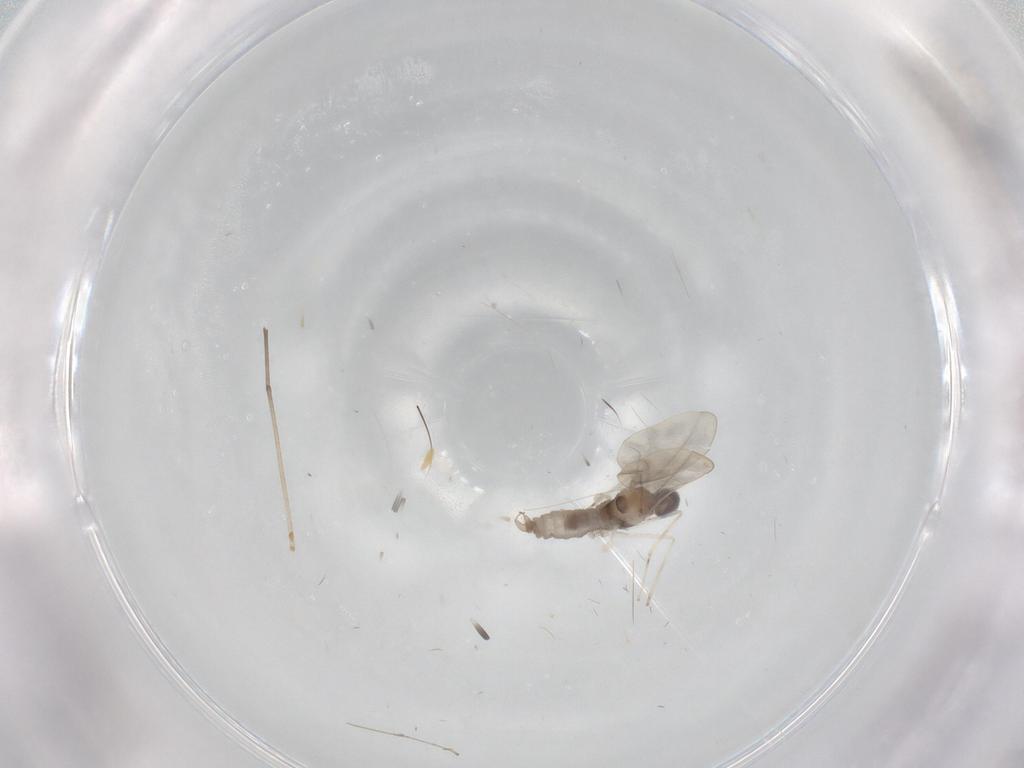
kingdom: Animalia
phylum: Arthropoda
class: Insecta
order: Diptera
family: Cecidomyiidae
